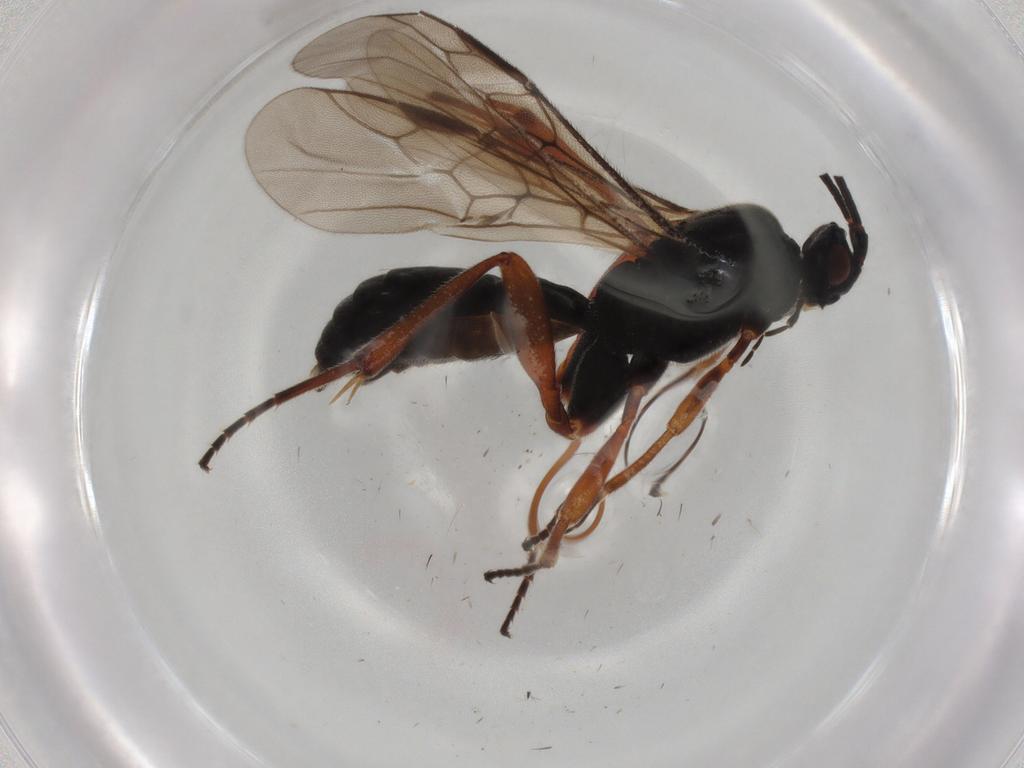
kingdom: Animalia
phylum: Arthropoda
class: Insecta
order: Hymenoptera
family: Braconidae
